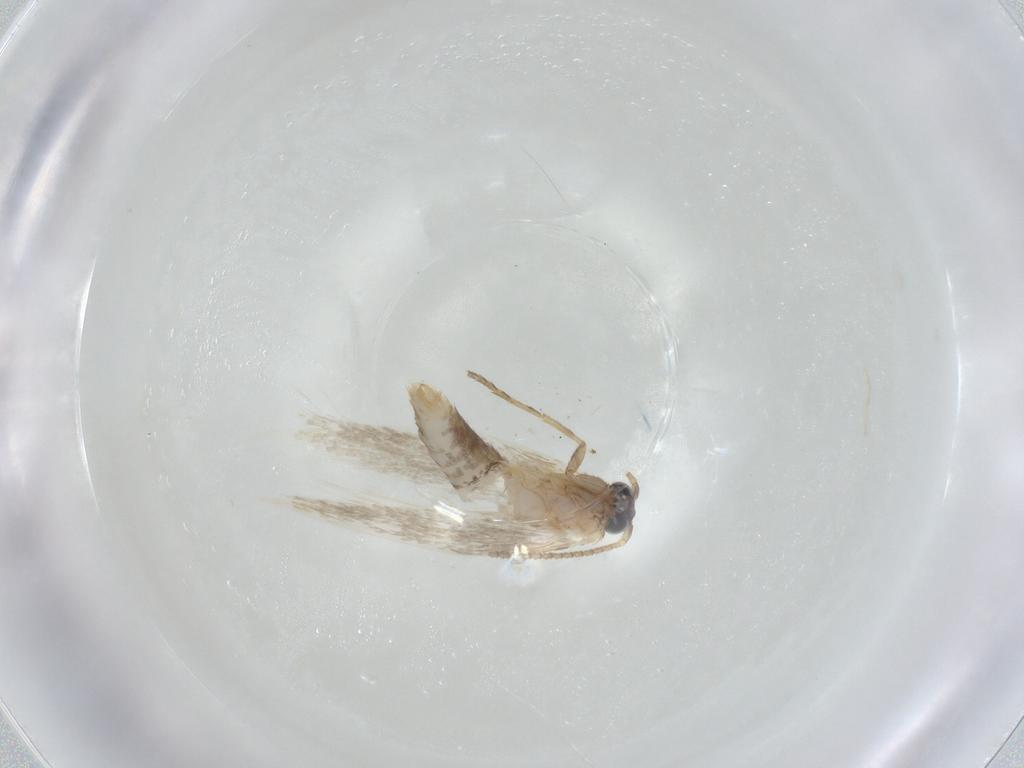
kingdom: Animalia
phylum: Arthropoda
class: Insecta
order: Lepidoptera
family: Tineidae
